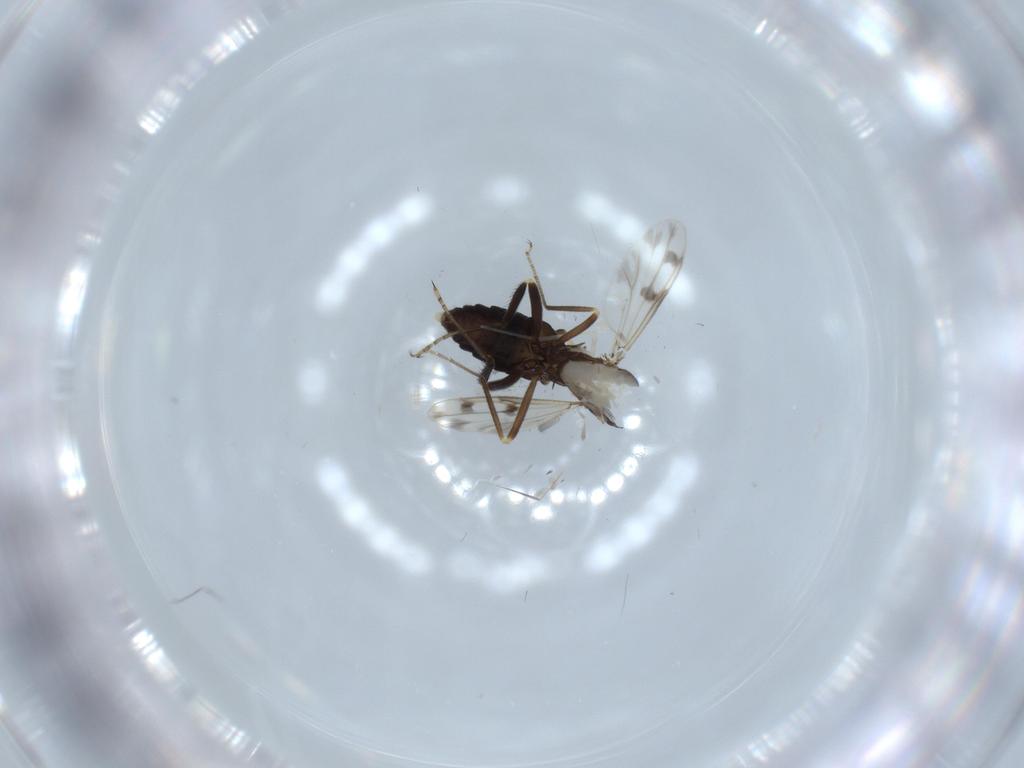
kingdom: Animalia
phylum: Arthropoda
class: Insecta
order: Diptera
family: Ceratopogonidae
